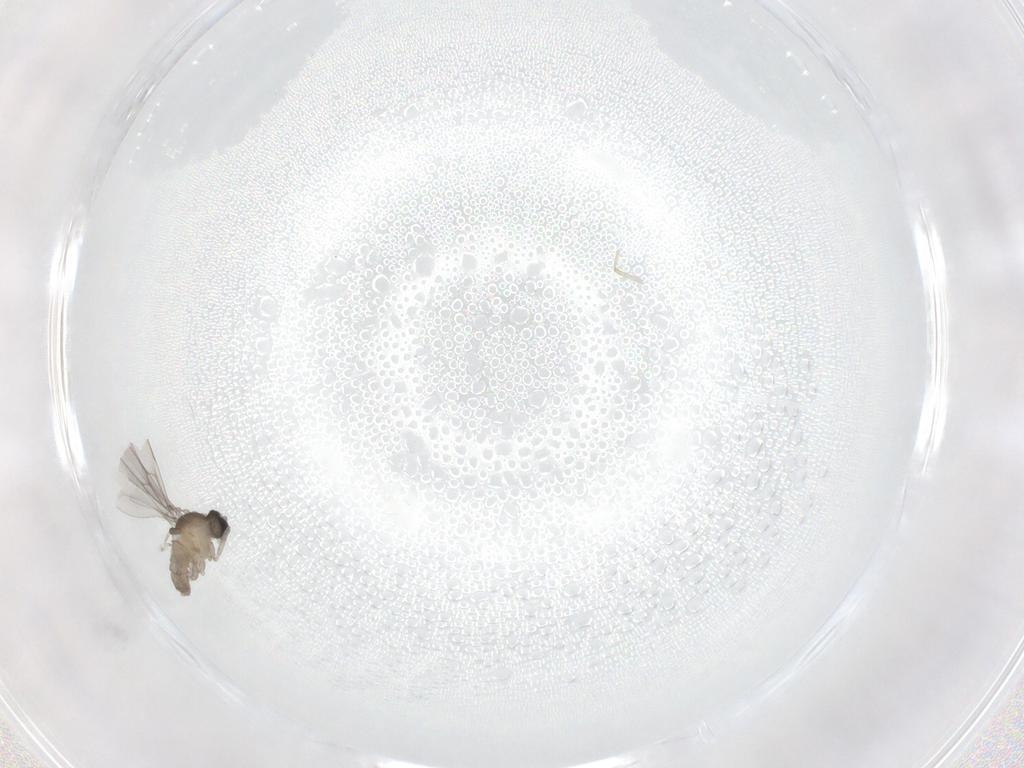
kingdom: Animalia
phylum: Arthropoda
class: Insecta
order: Diptera
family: Cecidomyiidae
